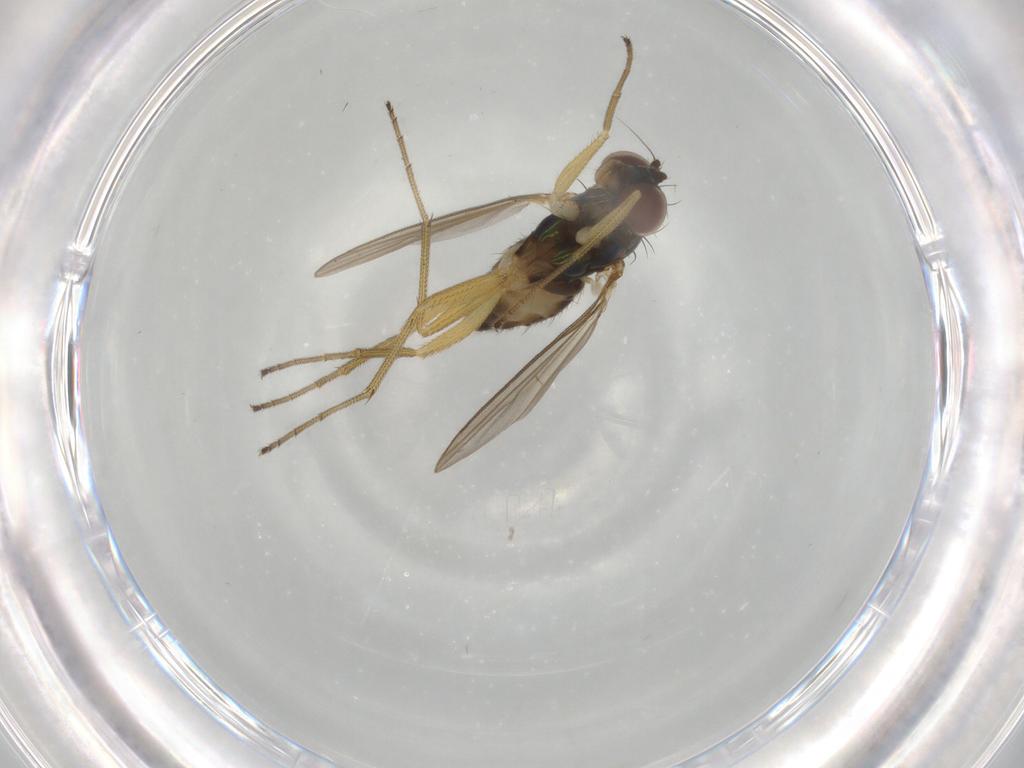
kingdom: Animalia
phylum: Arthropoda
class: Insecta
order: Diptera
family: Dolichopodidae
